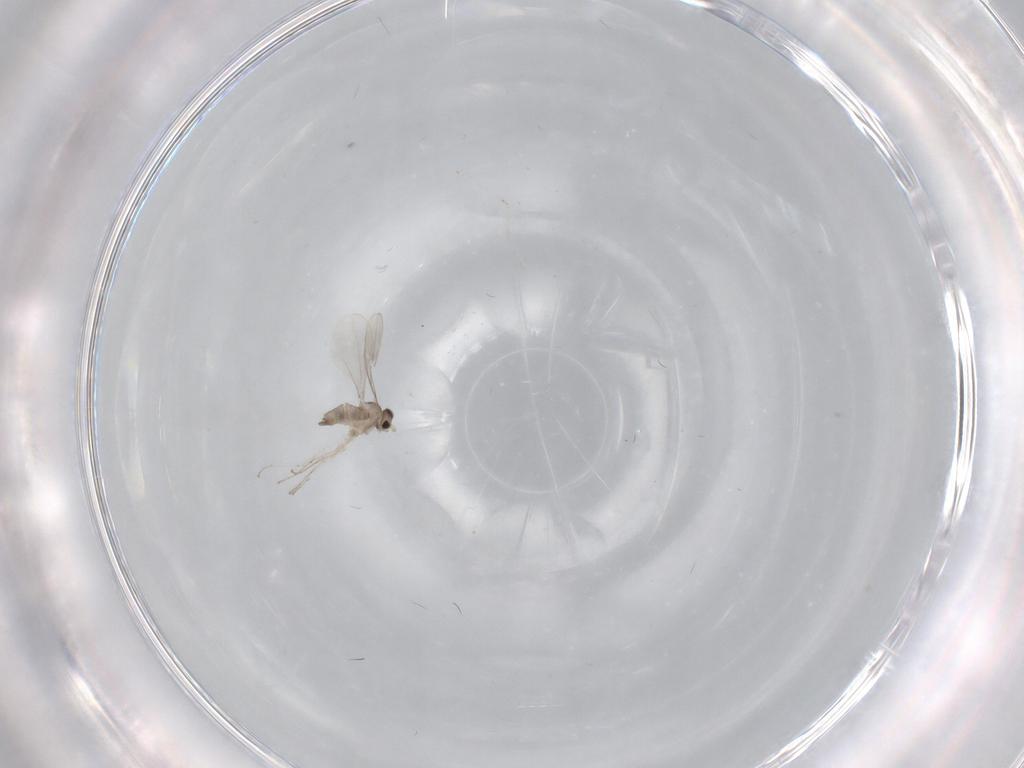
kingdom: Animalia
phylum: Arthropoda
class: Insecta
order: Diptera
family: Cecidomyiidae
